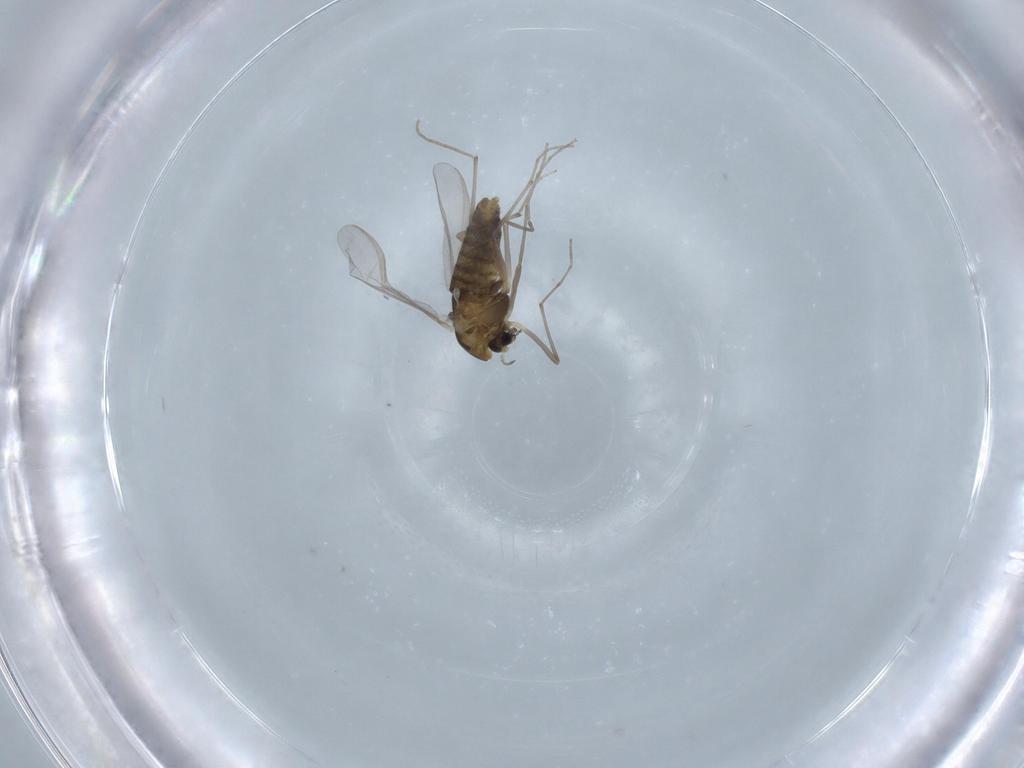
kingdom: Animalia
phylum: Arthropoda
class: Insecta
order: Diptera
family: Chironomidae
